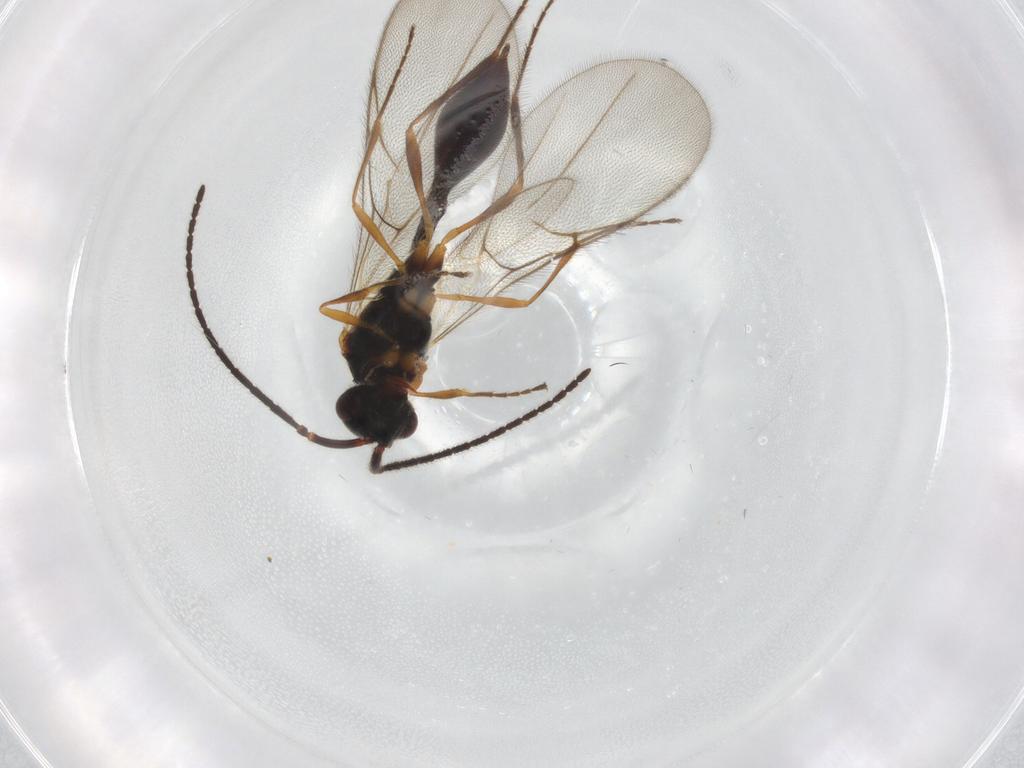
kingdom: Animalia
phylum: Arthropoda
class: Insecta
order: Hymenoptera
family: Diapriidae
